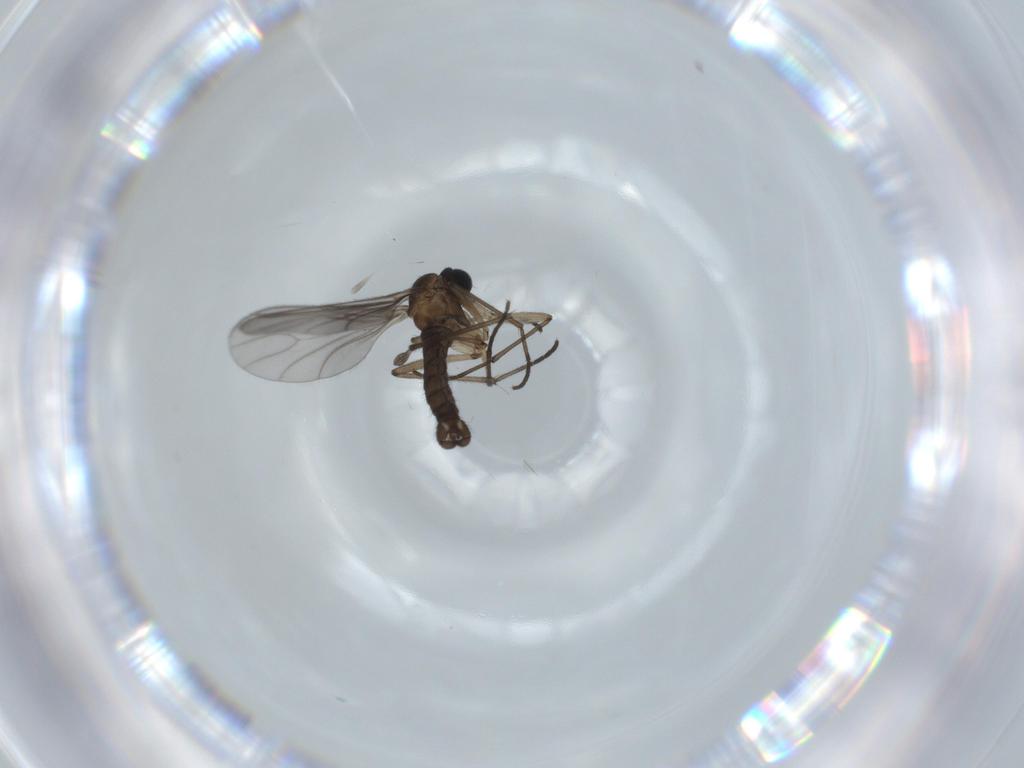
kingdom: Animalia
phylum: Arthropoda
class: Insecta
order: Diptera
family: Sciaridae
